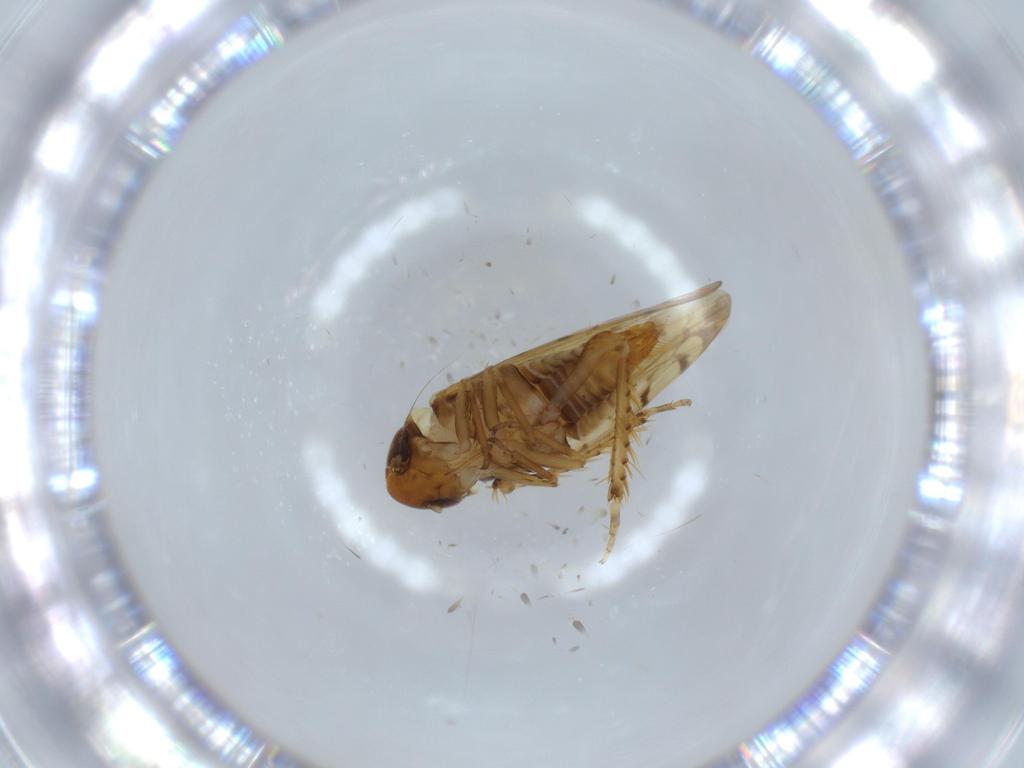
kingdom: Animalia
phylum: Arthropoda
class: Insecta
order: Hemiptera
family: Cicadellidae
